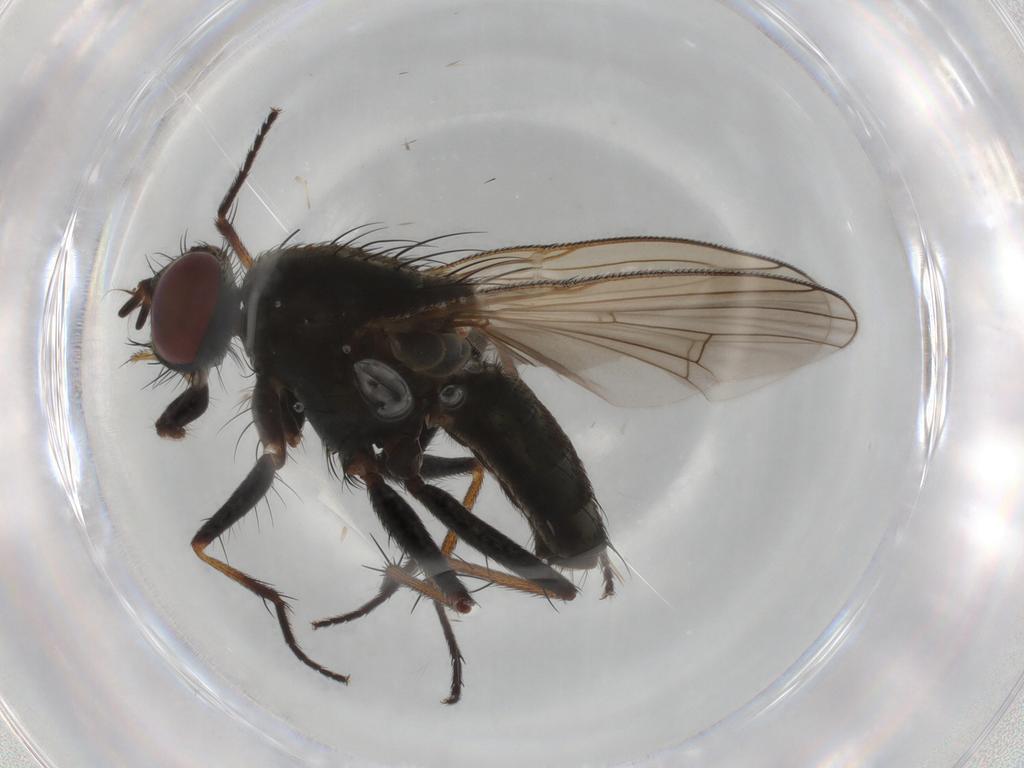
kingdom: Animalia
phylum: Arthropoda
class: Insecta
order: Diptera
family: Muscidae
